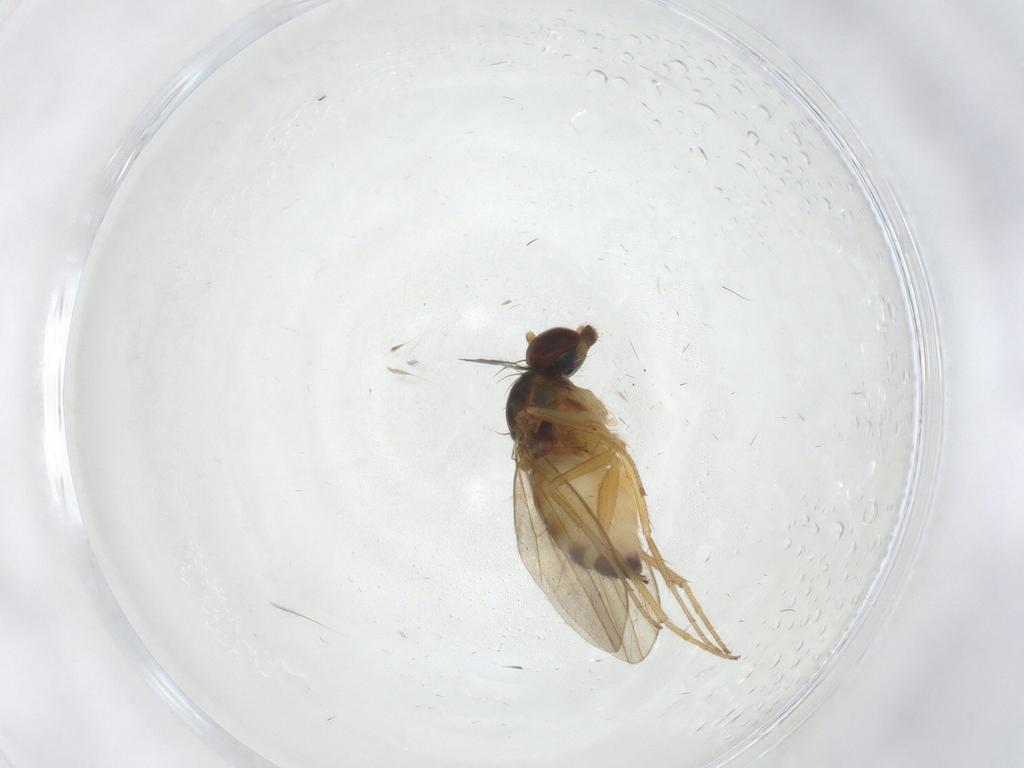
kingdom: Animalia
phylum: Arthropoda
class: Insecta
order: Diptera
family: Dolichopodidae
